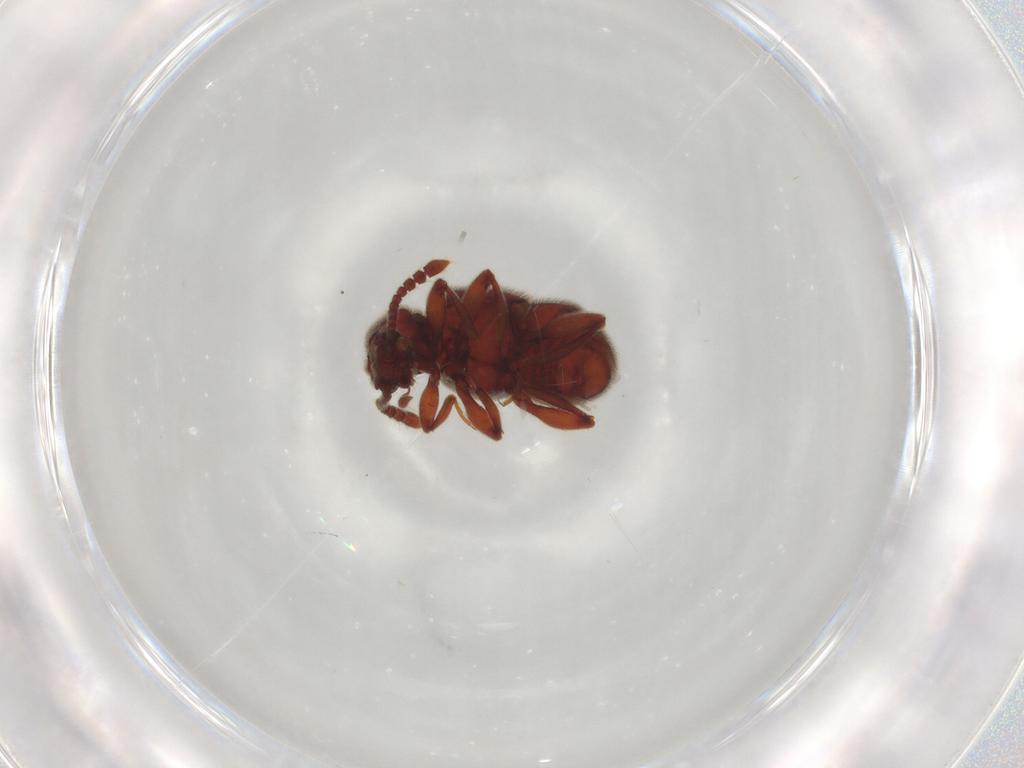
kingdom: Animalia
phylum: Arthropoda
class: Insecta
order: Coleoptera
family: Staphylinidae
